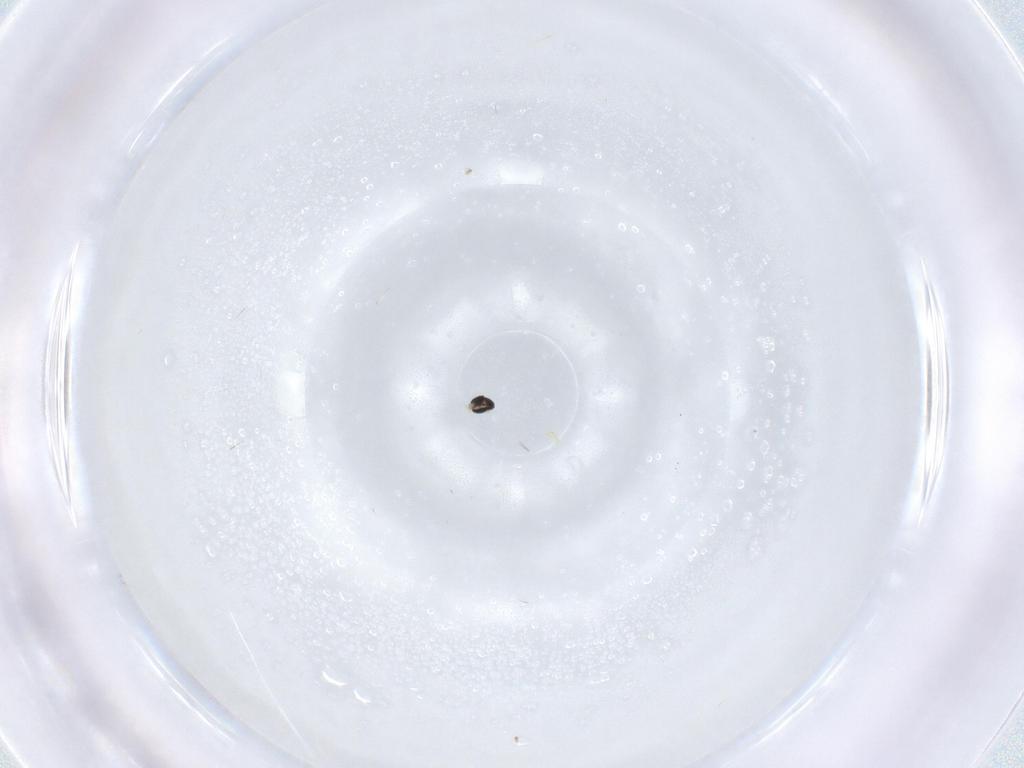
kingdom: Animalia
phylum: Arthropoda
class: Insecta
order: Diptera
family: Cecidomyiidae
